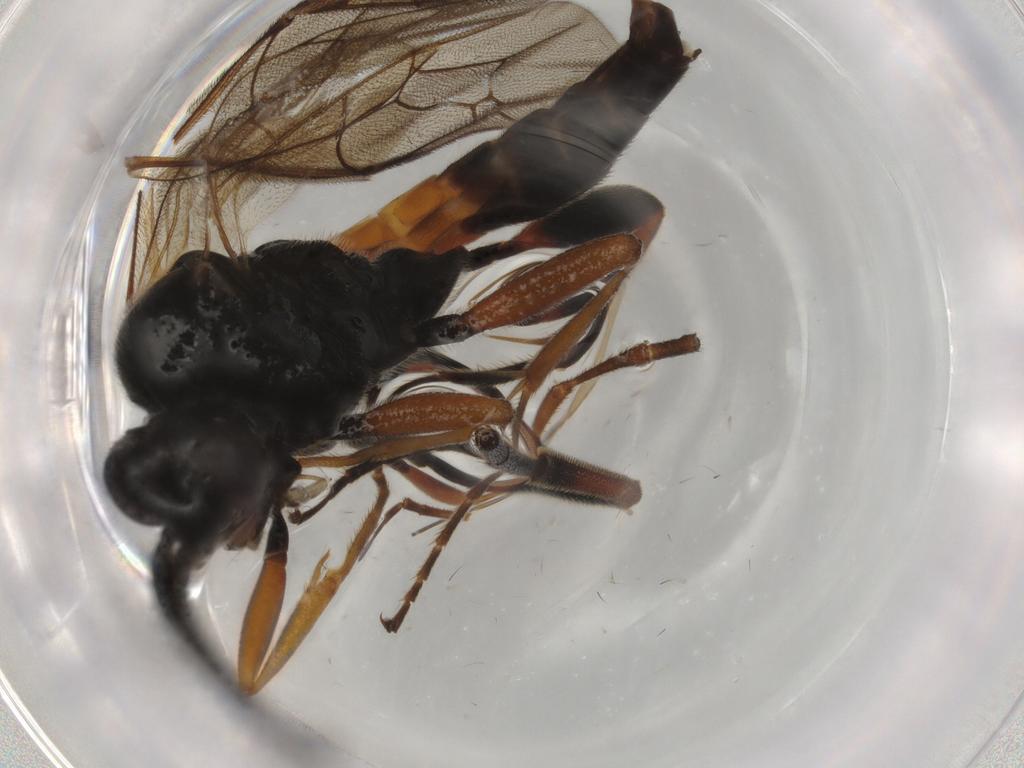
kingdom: Animalia
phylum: Arthropoda
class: Insecta
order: Hymenoptera
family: Ichneumonidae
